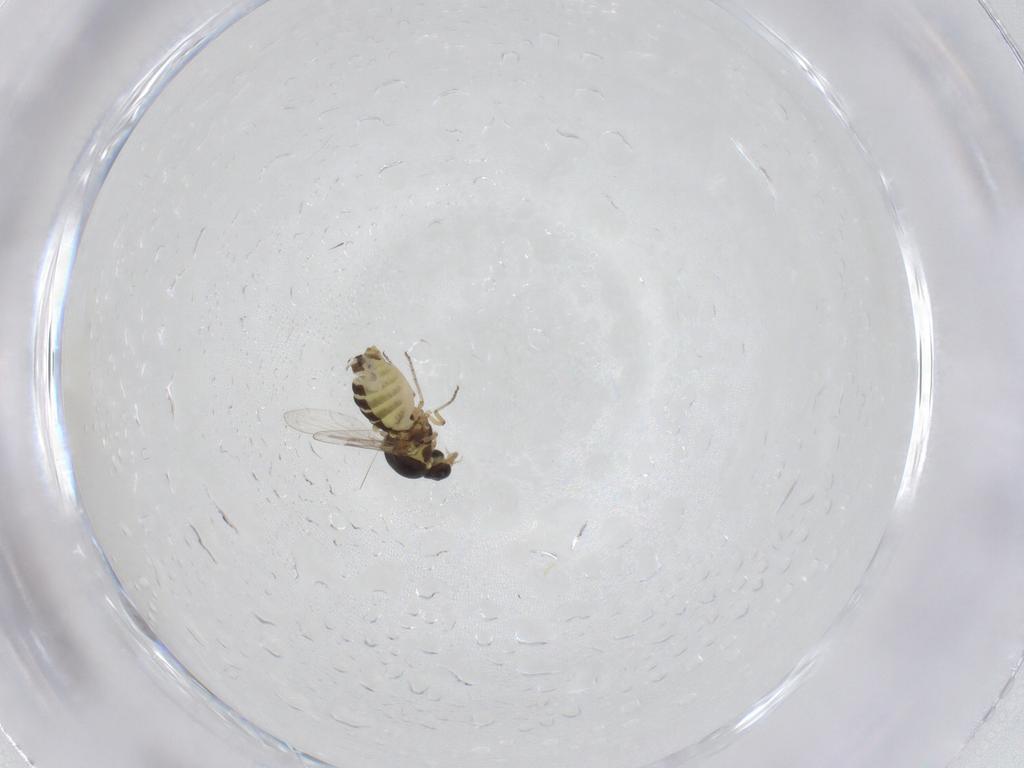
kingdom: Animalia
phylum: Arthropoda
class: Insecta
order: Diptera
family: Ceratopogonidae
